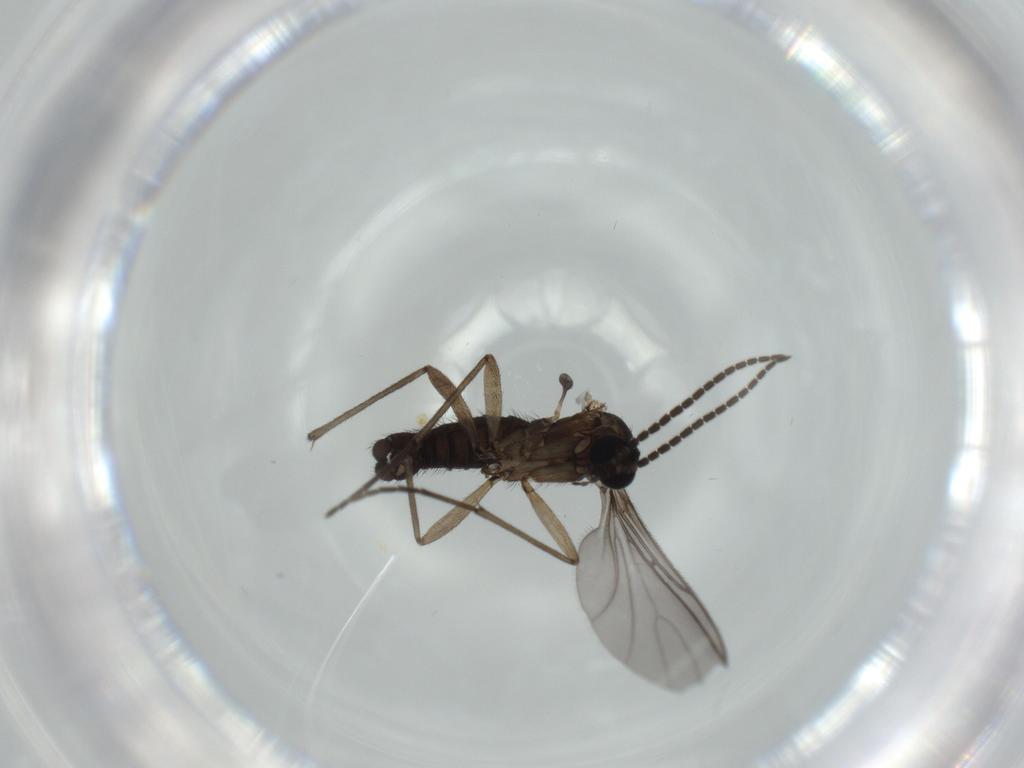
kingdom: Animalia
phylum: Arthropoda
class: Insecta
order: Diptera
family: Sciaridae
